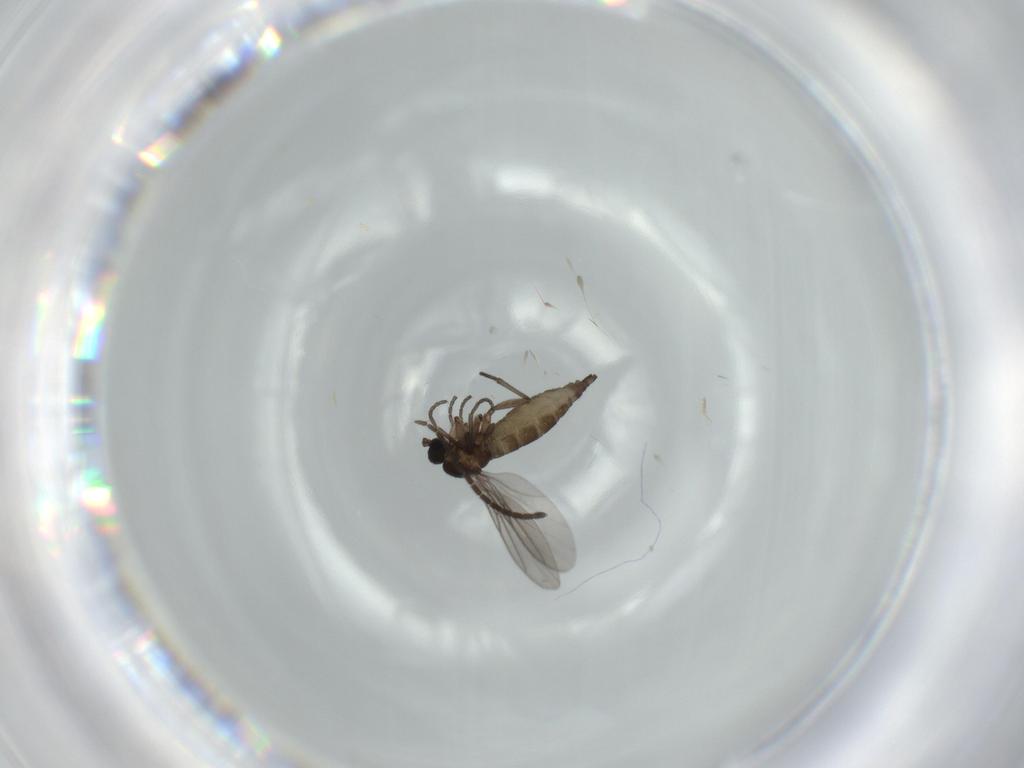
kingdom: Animalia
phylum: Arthropoda
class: Insecta
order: Diptera
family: Sciaridae
